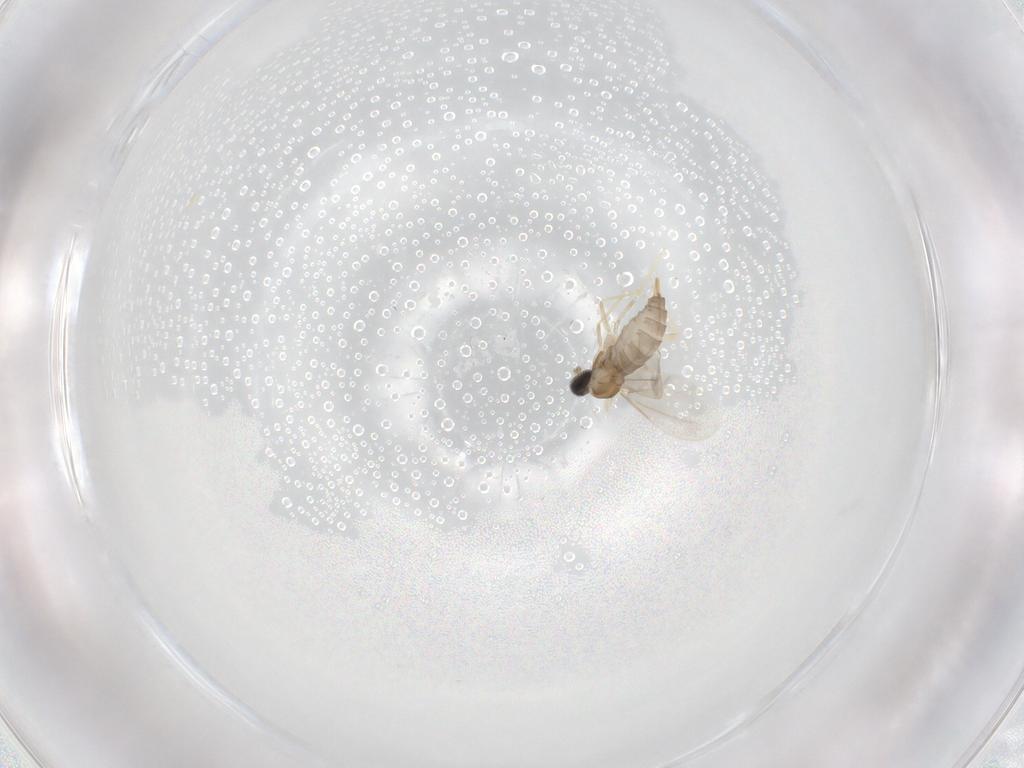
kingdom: Animalia
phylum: Arthropoda
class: Insecta
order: Diptera
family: Cecidomyiidae
